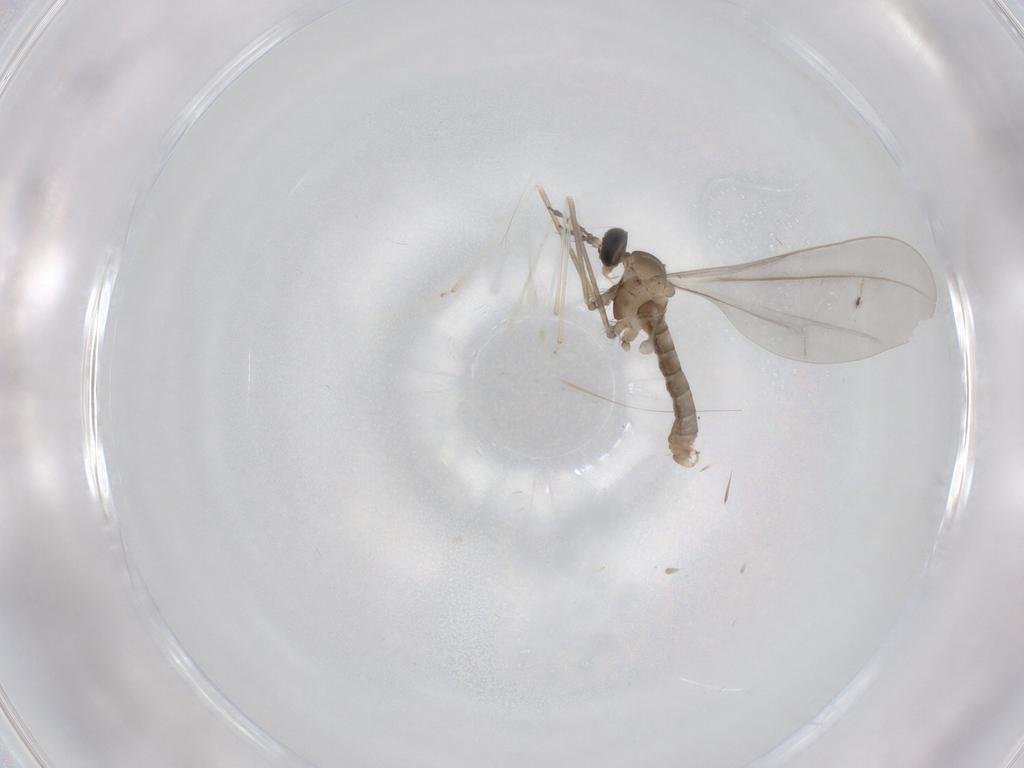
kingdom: Animalia
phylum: Arthropoda
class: Insecta
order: Diptera
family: Cecidomyiidae
